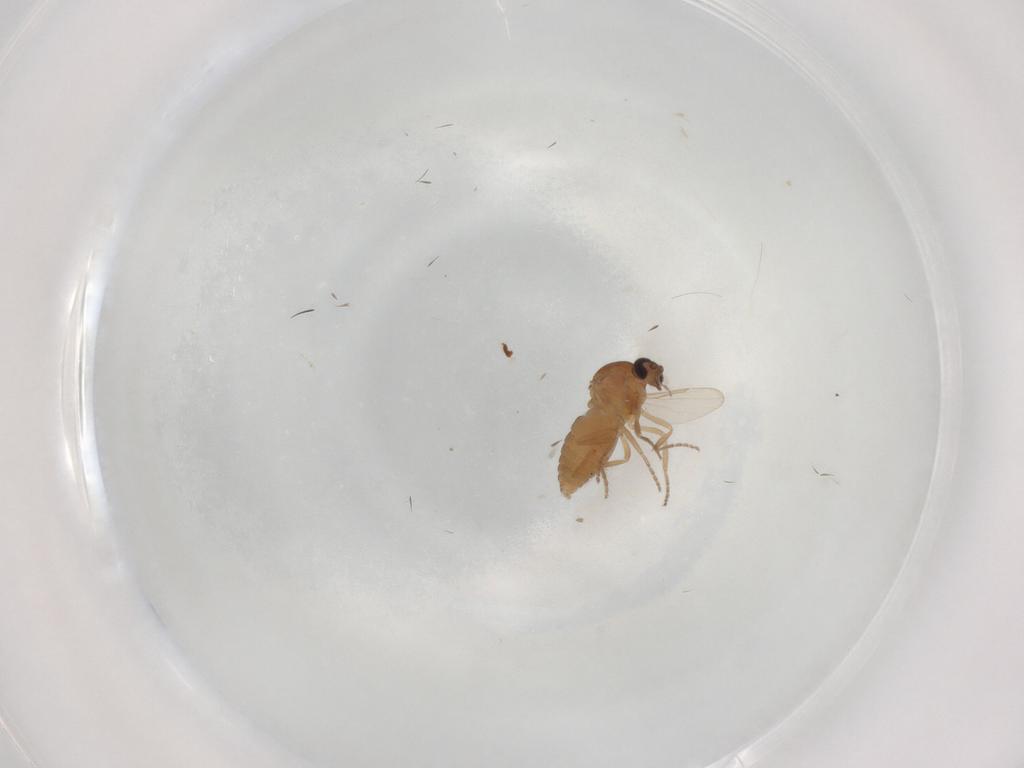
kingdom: Animalia
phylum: Arthropoda
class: Insecta
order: Diptera
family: Ceratopogonidae
